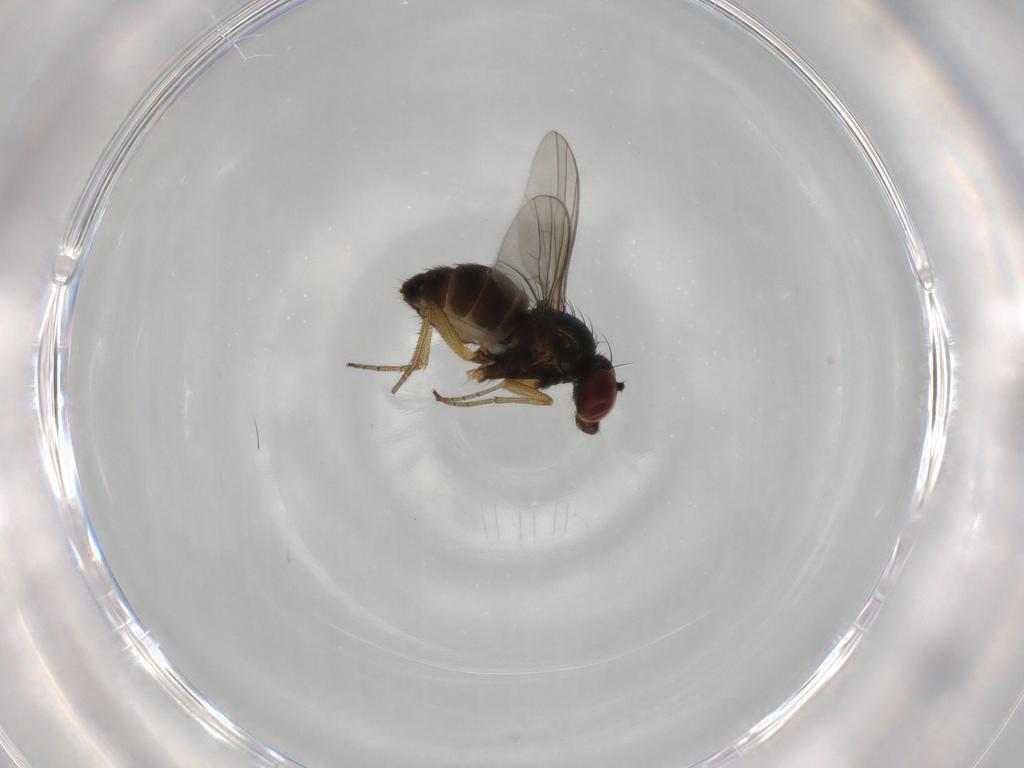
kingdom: Animalia
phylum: Arthropoda
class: Insecta
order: Diptera
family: Dolichopodidae
